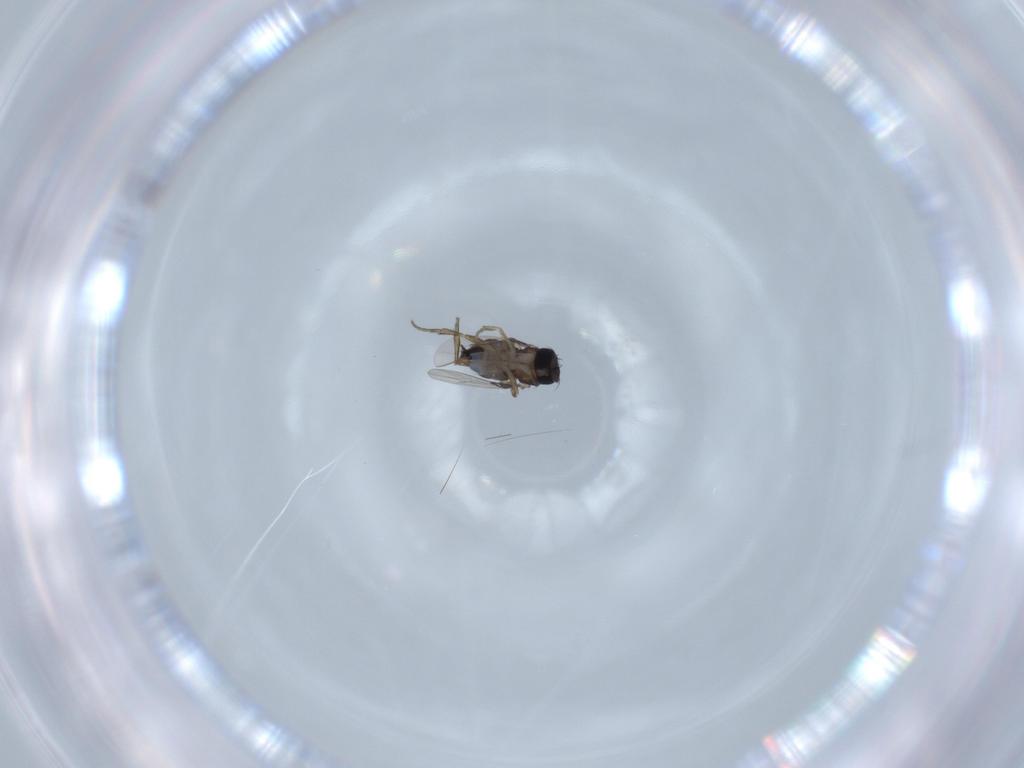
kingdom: Animalia
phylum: Arthropoda
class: Insecta
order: Diptera
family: Phoridae
